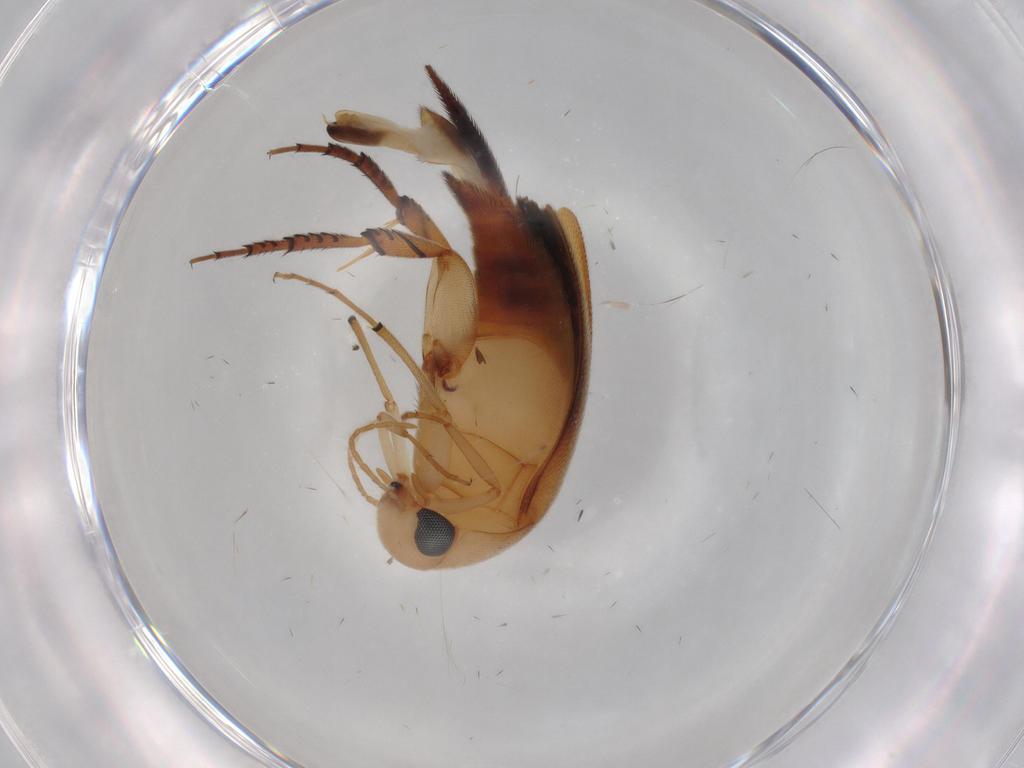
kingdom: Animalia
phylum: Arthropoda
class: Insecta
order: Coleoptera
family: Mordellidae
